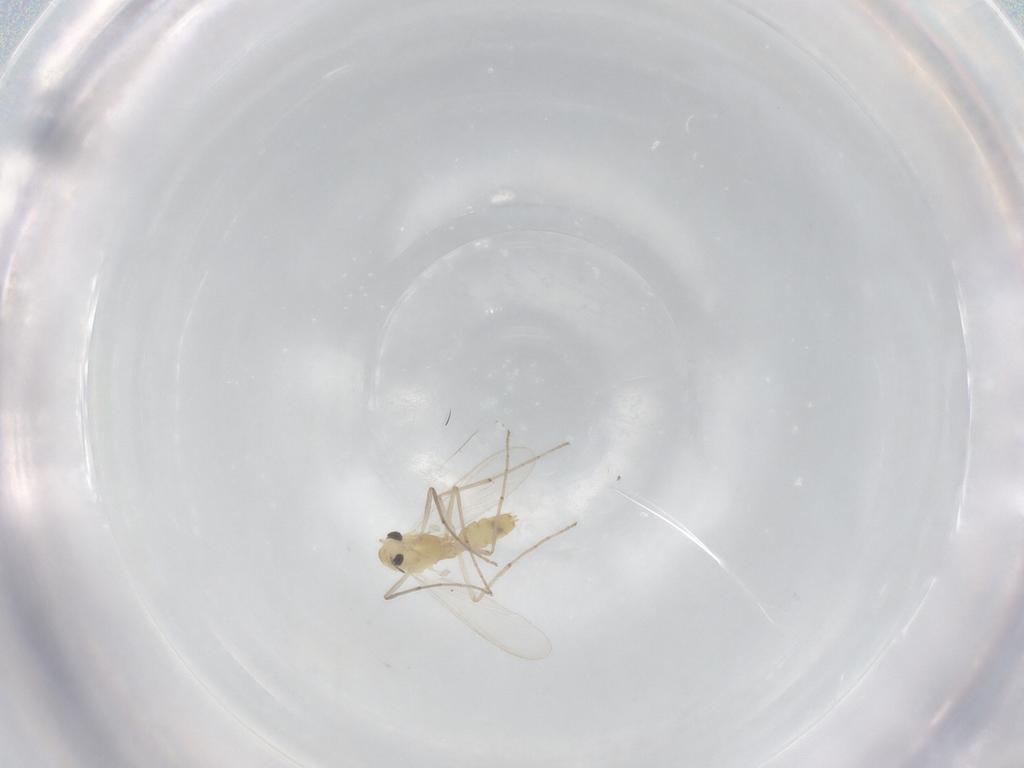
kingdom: Animalia
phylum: Arthropoda
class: Insecta
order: Diptera
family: Chironomidae
